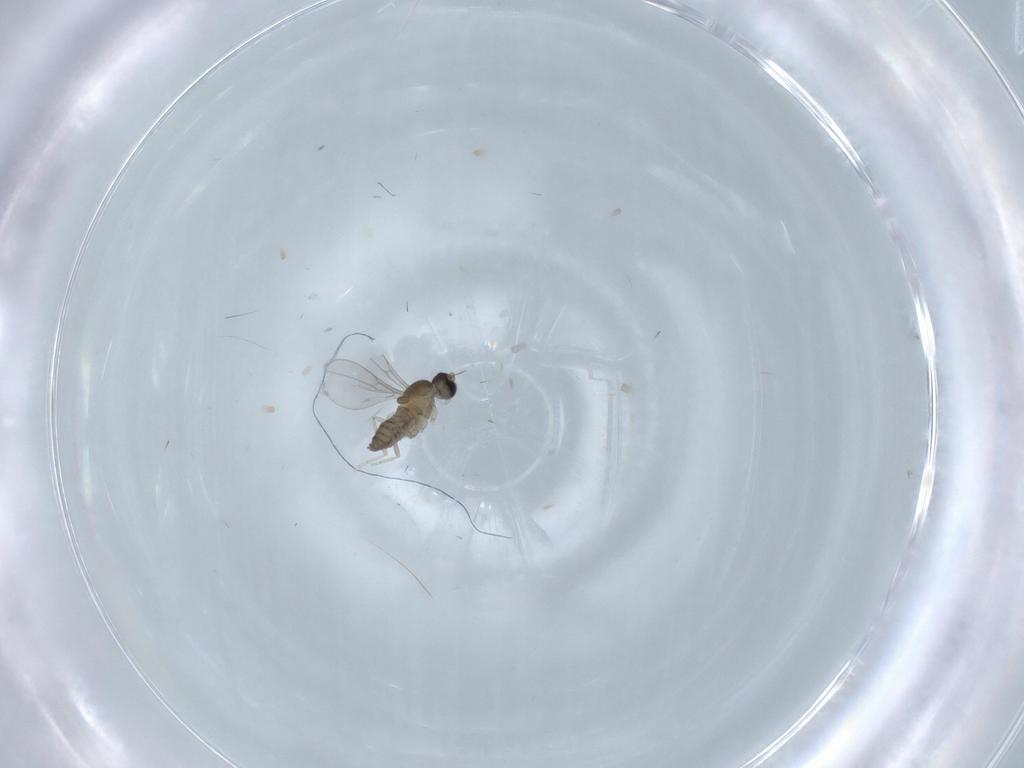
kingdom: Animalia
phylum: Arthropoda
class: Insecta
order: Diptera
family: Cecidomyiidae
